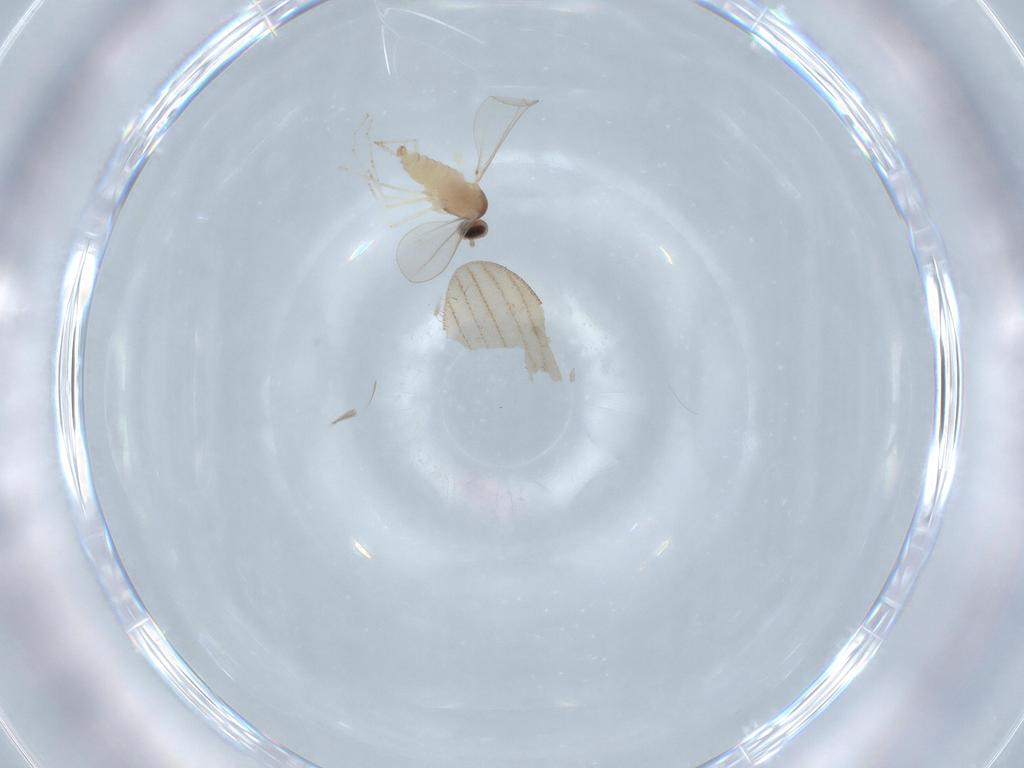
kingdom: Animalia
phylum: Arthropoda
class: Insecta
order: Diptera
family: Cecidomyiidae
